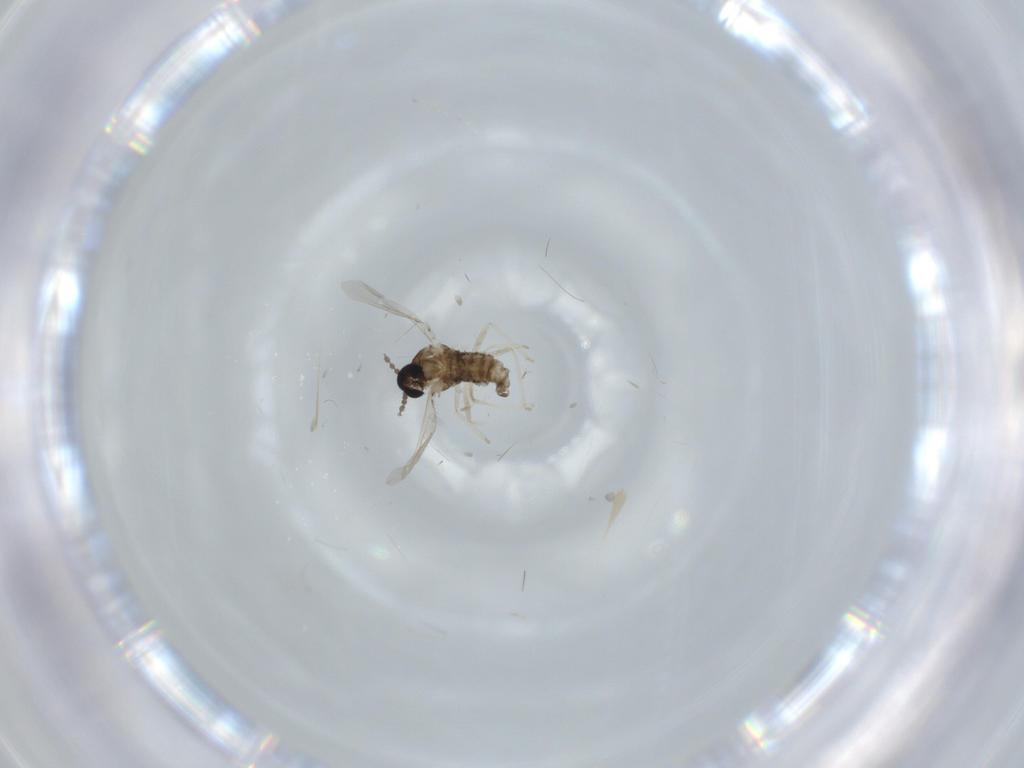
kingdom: Animalia
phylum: Arthropoda
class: Insecta
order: Diptera
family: Cecidomyiidae
